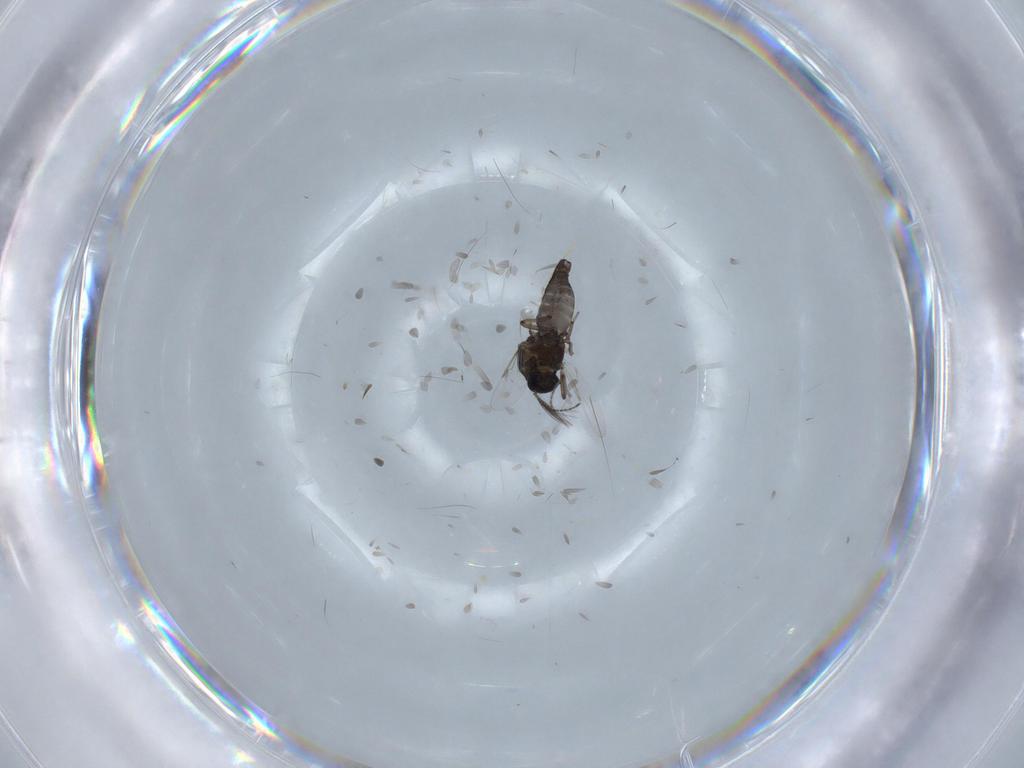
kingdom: Animalia
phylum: Arthropoda
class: Insecta
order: Diptera
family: Ceratopogonidae
